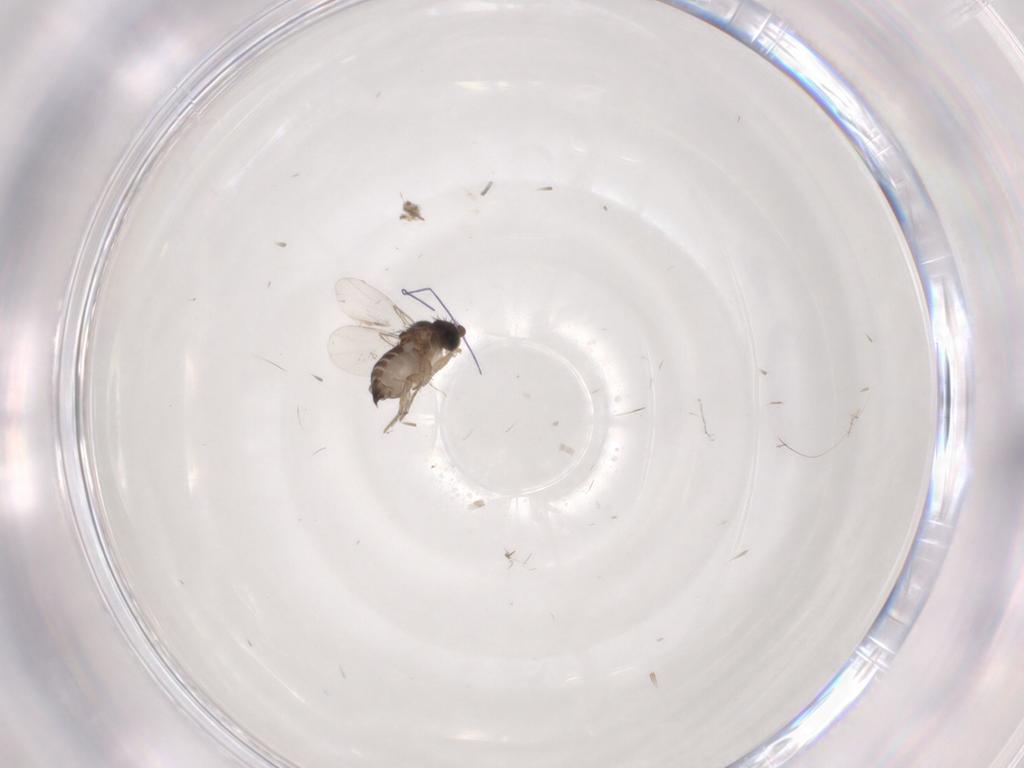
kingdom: Animalia
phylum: Arthropoda
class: Insecta
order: Diptera
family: Phoridae
